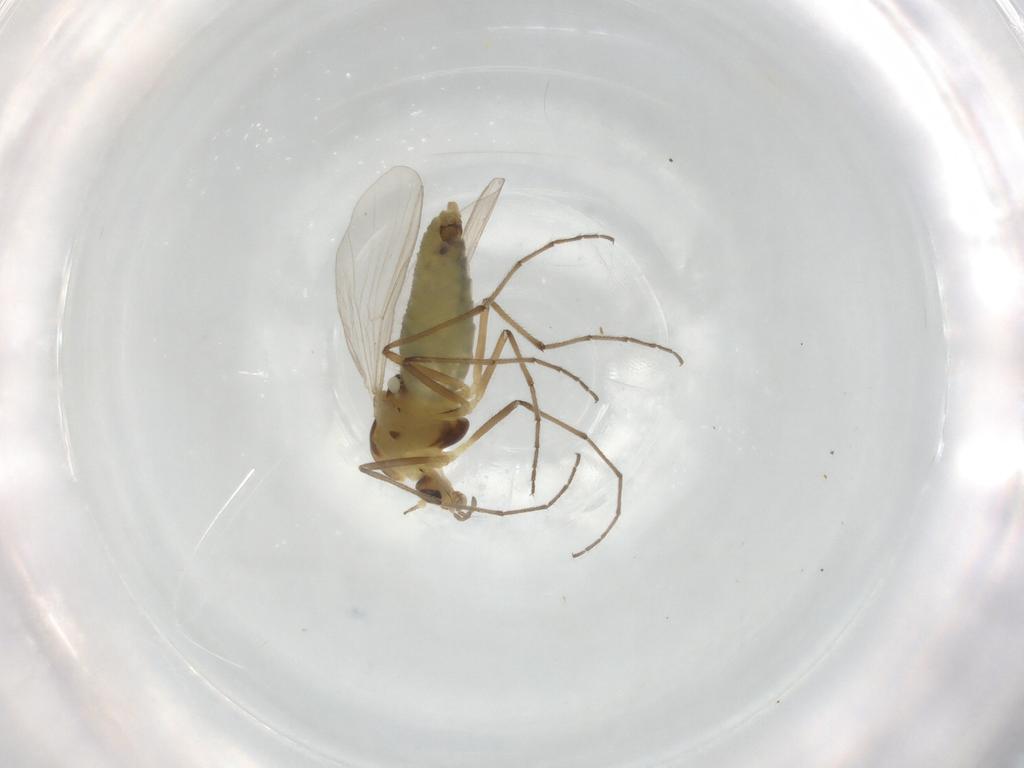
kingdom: Animalia
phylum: Arthropoda
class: Insecta
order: Diptera
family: Chironomidae
